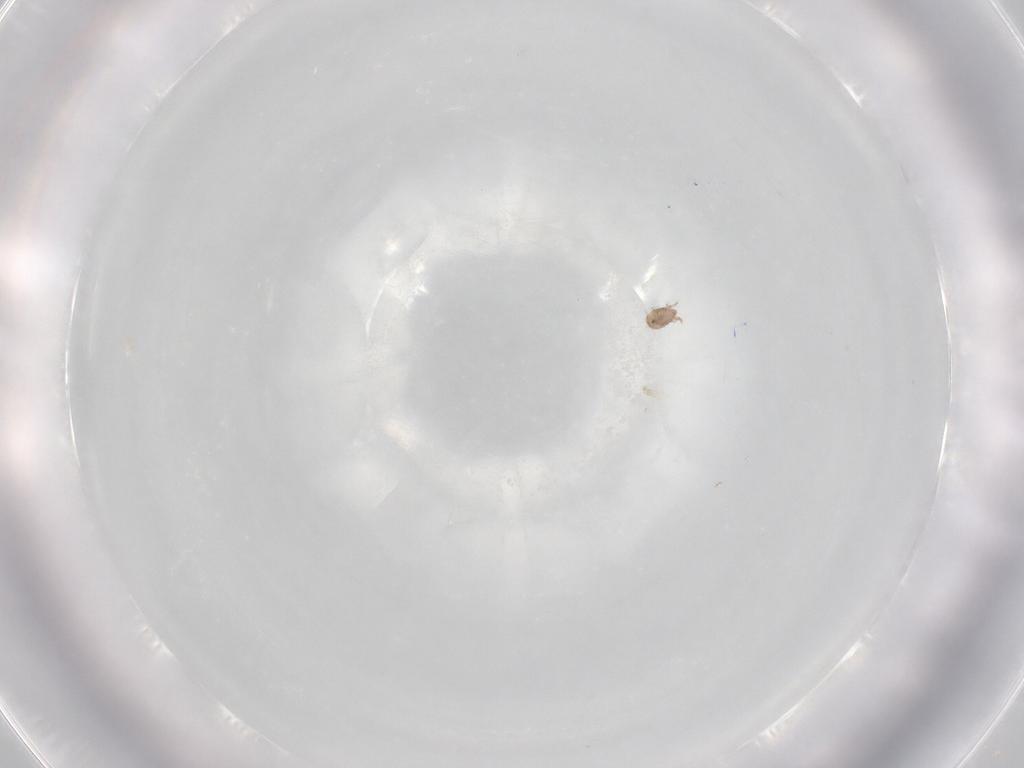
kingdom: Animalia
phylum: Arthropoda
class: Arachnida
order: Sarcoptiformes
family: Eremaeidae
